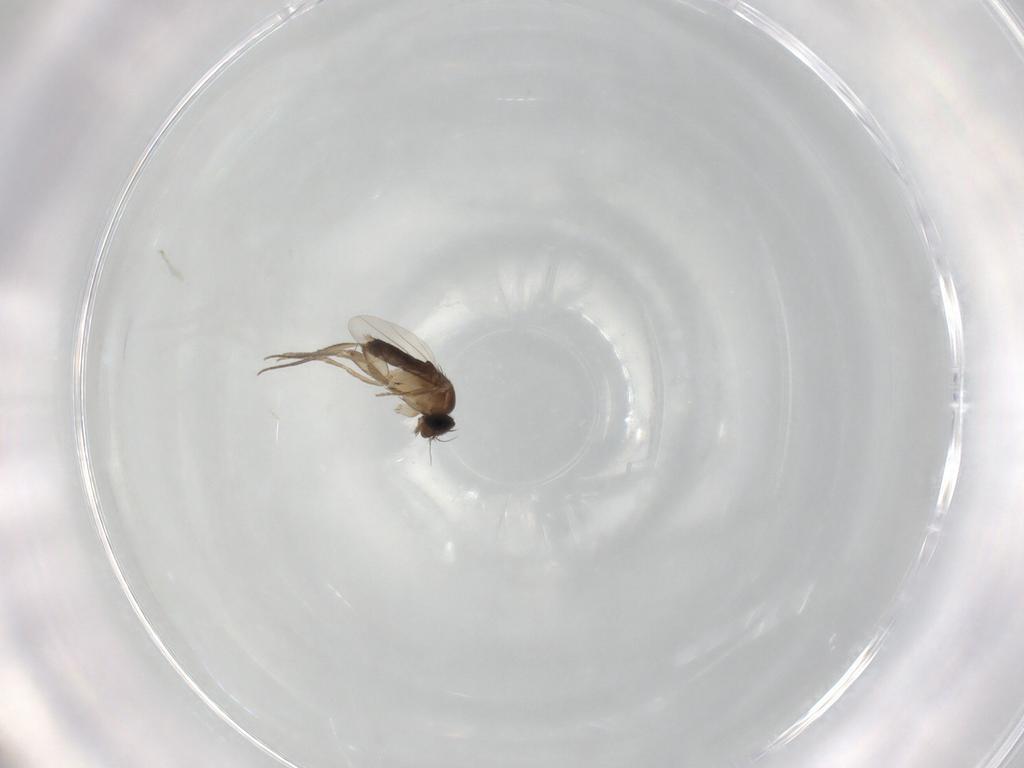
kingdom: Animalia
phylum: Arthropoda
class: Insecta
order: Diptera
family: Phoridae
